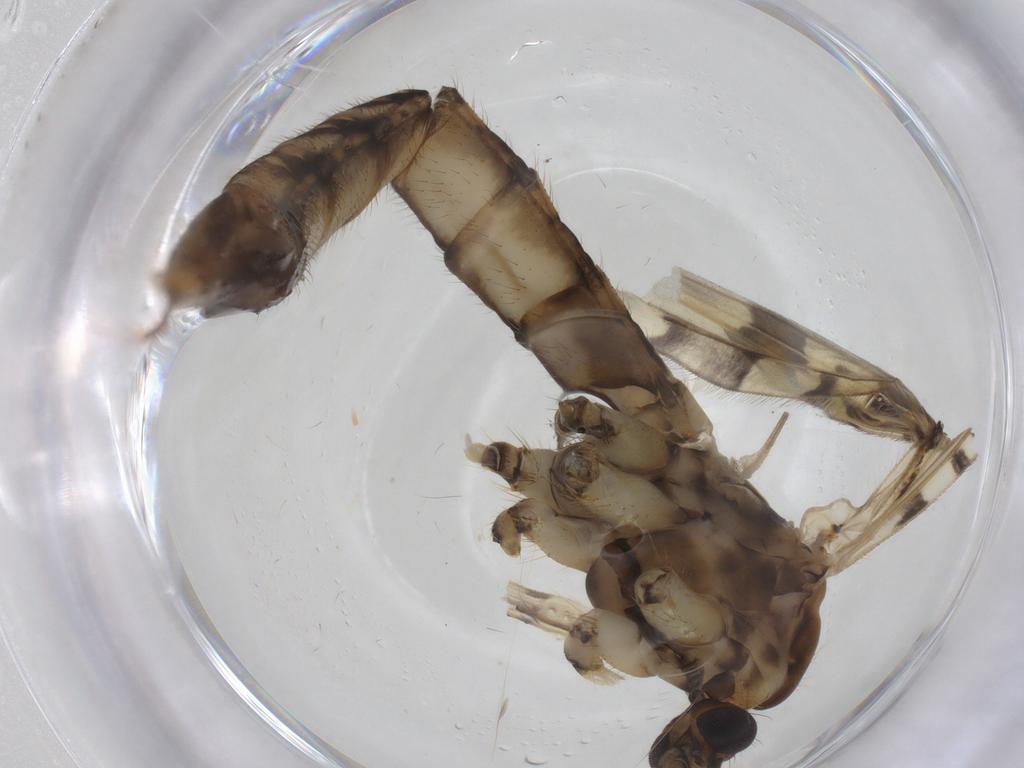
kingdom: Animalia
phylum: Arthropoda
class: Insecta
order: Diptera
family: Limoniidae
